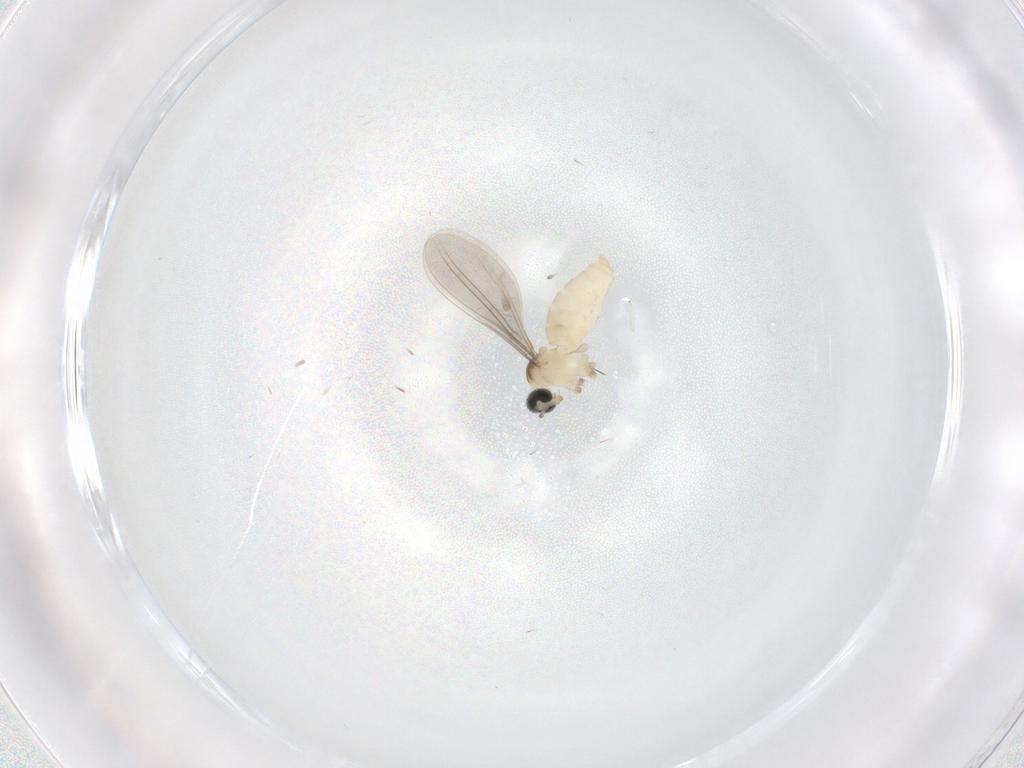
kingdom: Animalia
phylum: Arthropoda
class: Insecta
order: Diptera
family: Cecidomyiidae
